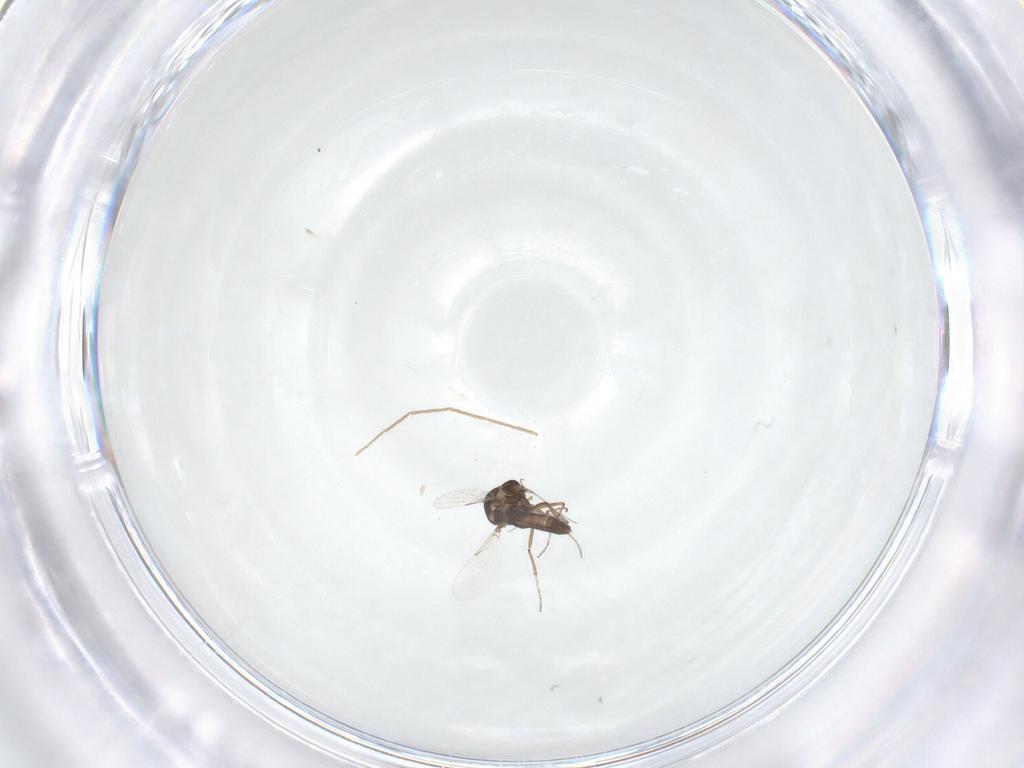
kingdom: Animalia
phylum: Arthropoda
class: Insecta
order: Diptera
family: Ceratopogonidae
